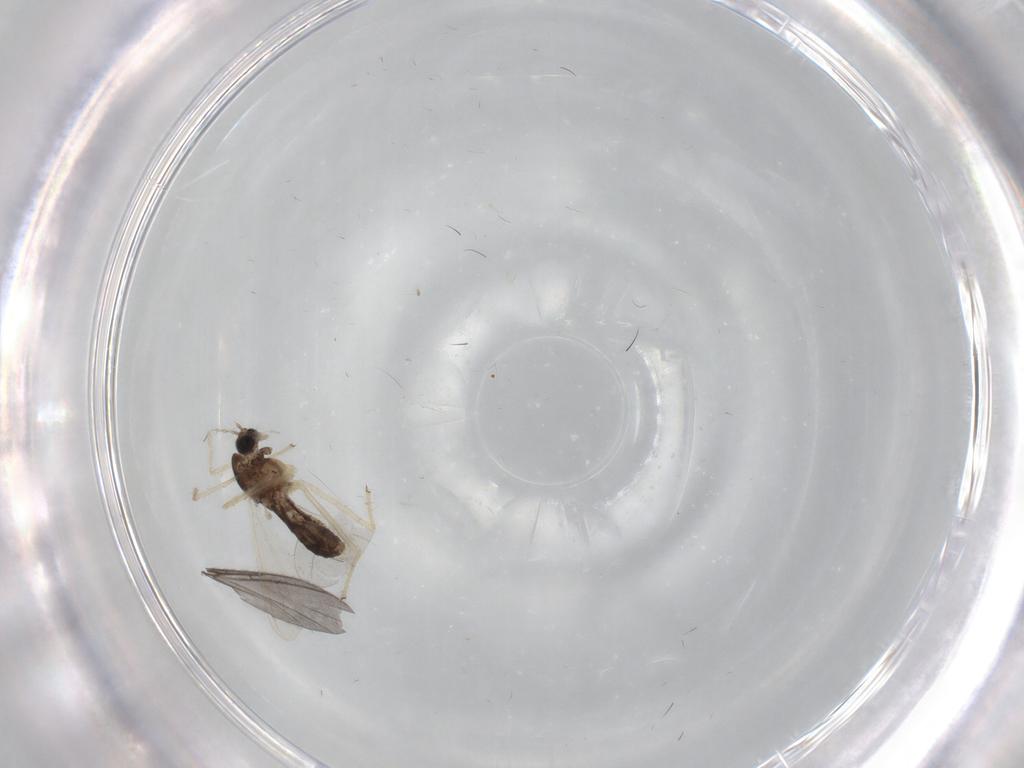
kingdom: Animalia
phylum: Arthropoda
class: Insecta
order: Diptera
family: Chironomidae
